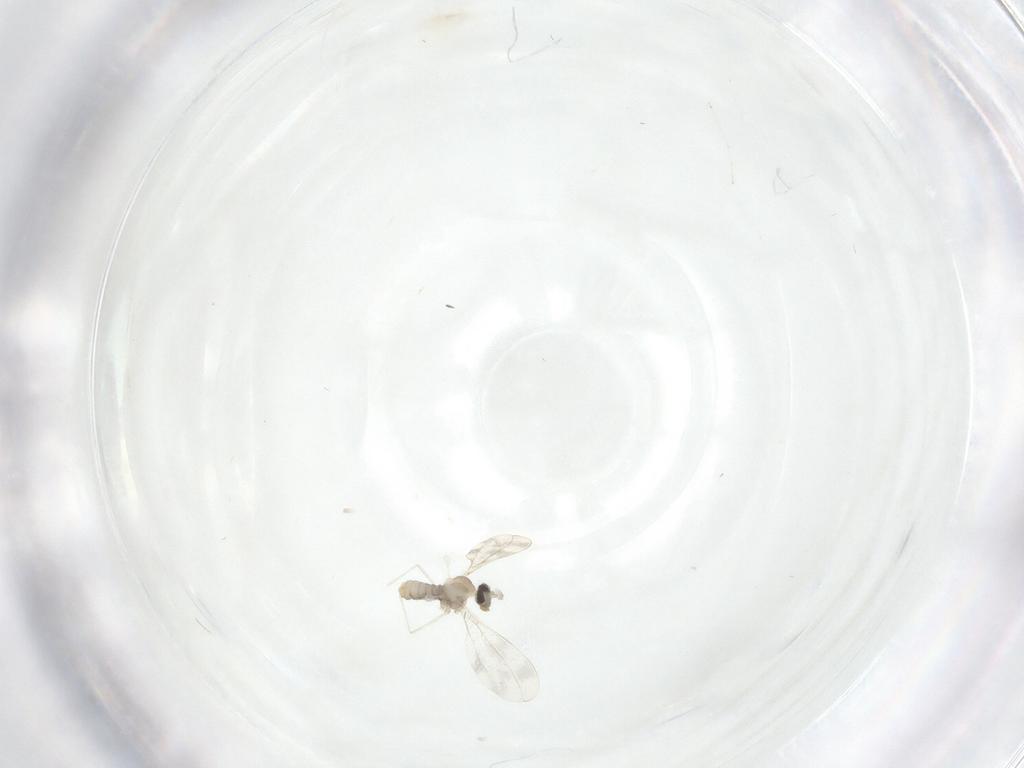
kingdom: Animalia
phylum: Arthropoda
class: Insecta
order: Diptera
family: Cecidomyiidae
